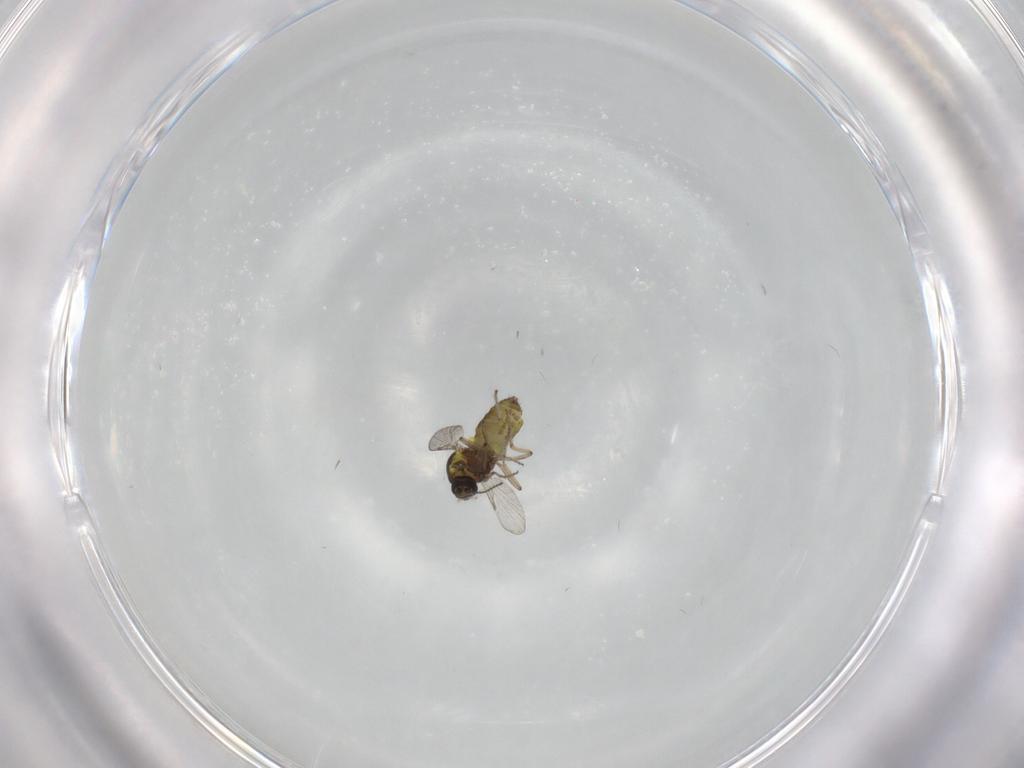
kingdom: Animalia
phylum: Arthropoda
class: Insecta
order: Diptera
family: Ceratopogonidae
